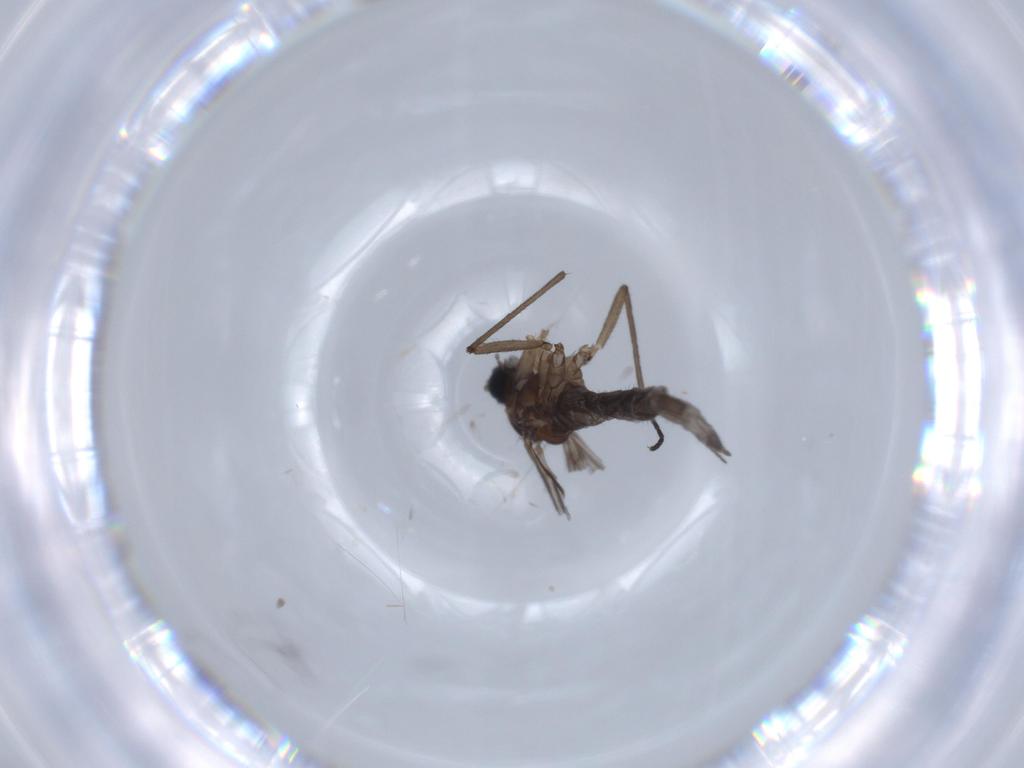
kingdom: Animalia
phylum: Arthropoda
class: Insecta
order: Diptera
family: Sciaridae
